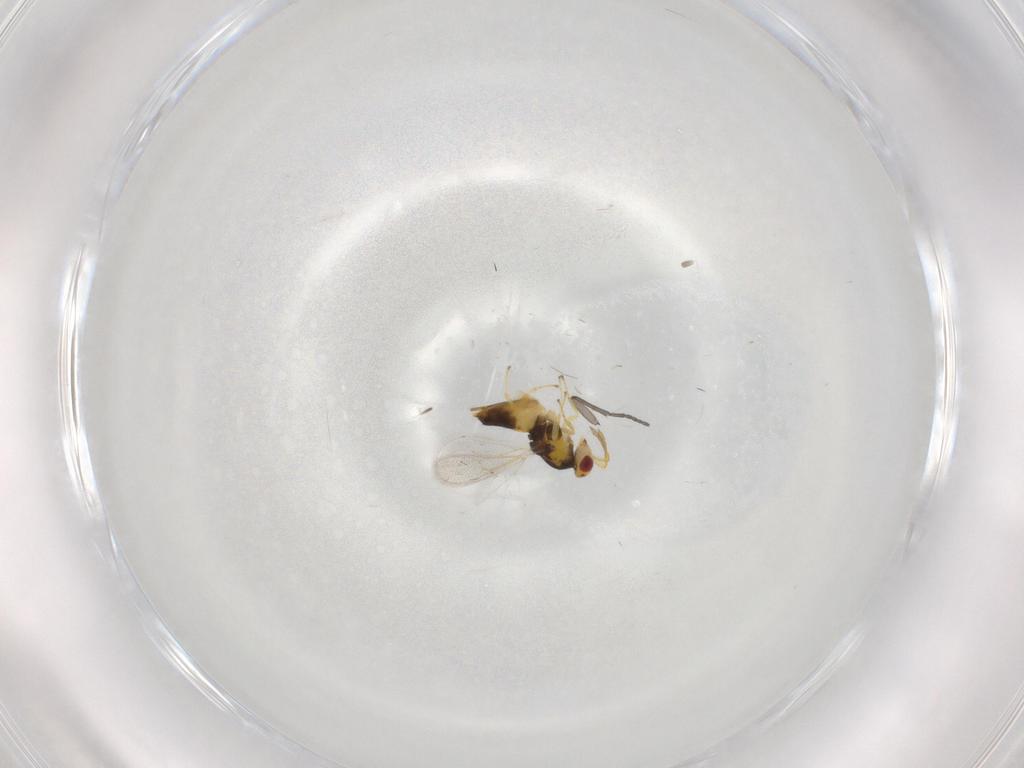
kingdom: Animalia
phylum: Arthropoda
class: Insecta
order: Hymenoptera
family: Eulophidae
